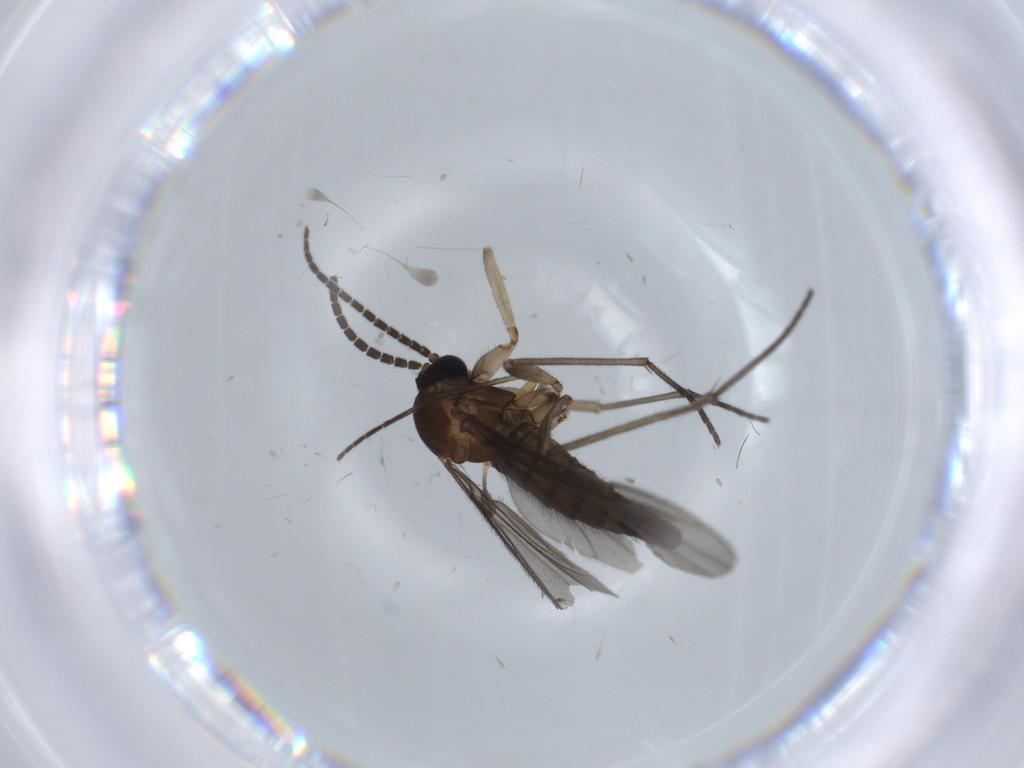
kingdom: Animalia
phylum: Arthropoda
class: Insecta
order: Diptera
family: Sciaridae
